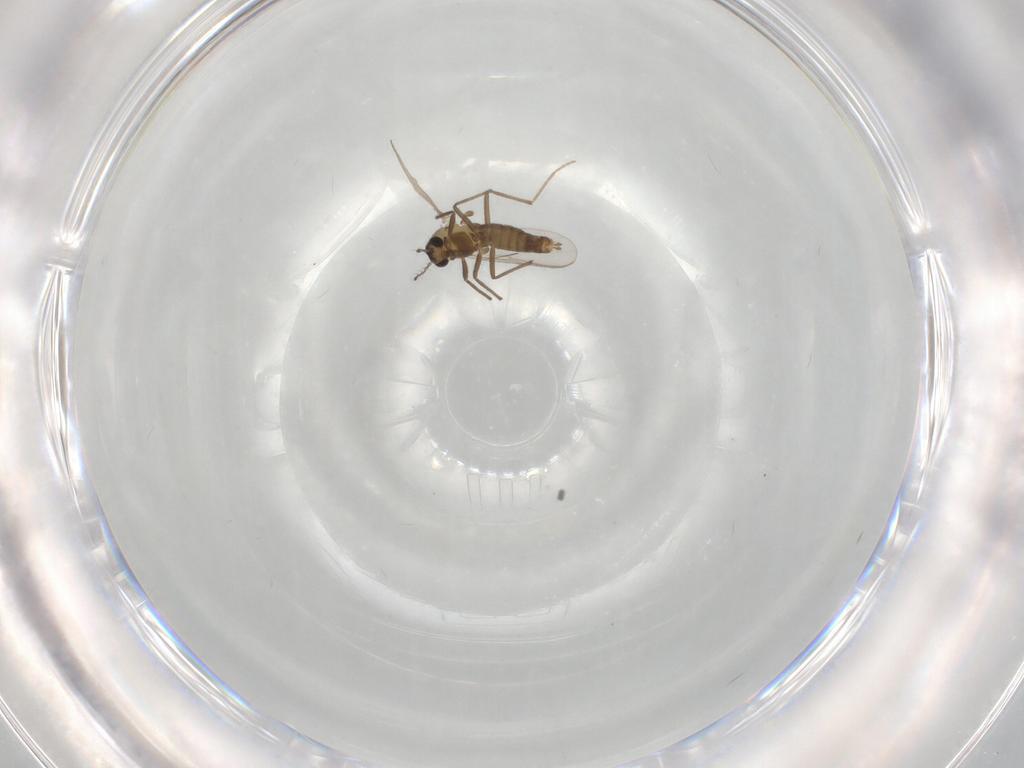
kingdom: Animalia
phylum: Arthropoda
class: Insecta
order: Diptera
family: Chironomidae
